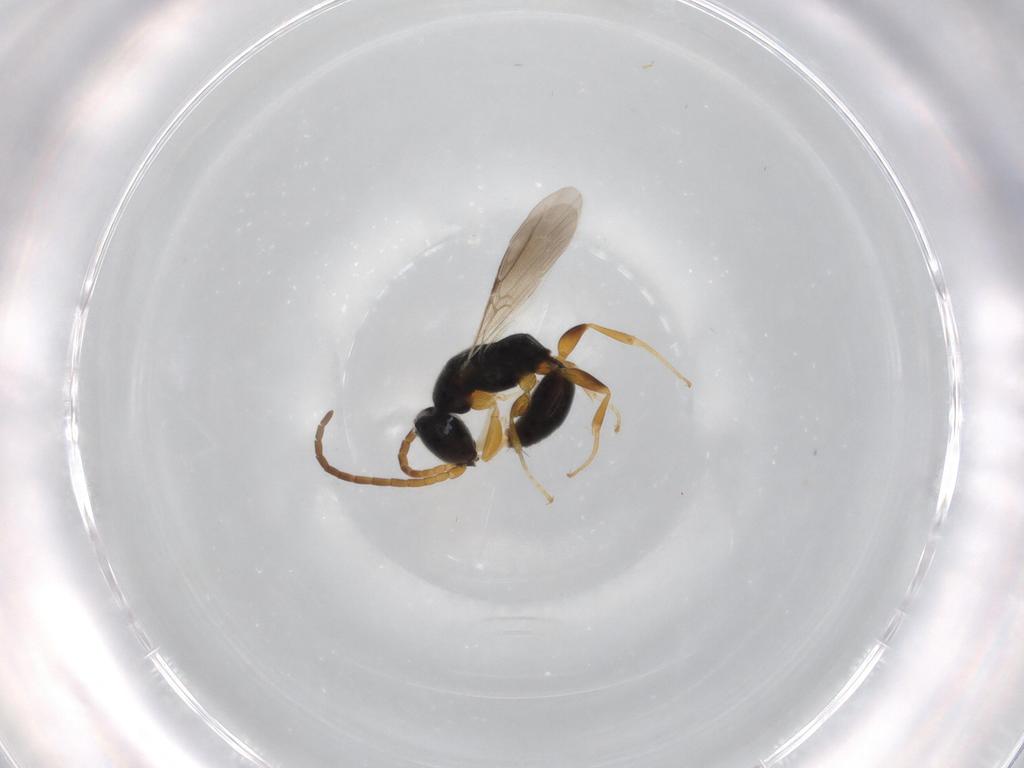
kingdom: Animalia
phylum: Arthropoda
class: Insecta
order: Hymenoptera
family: Bethylidae
